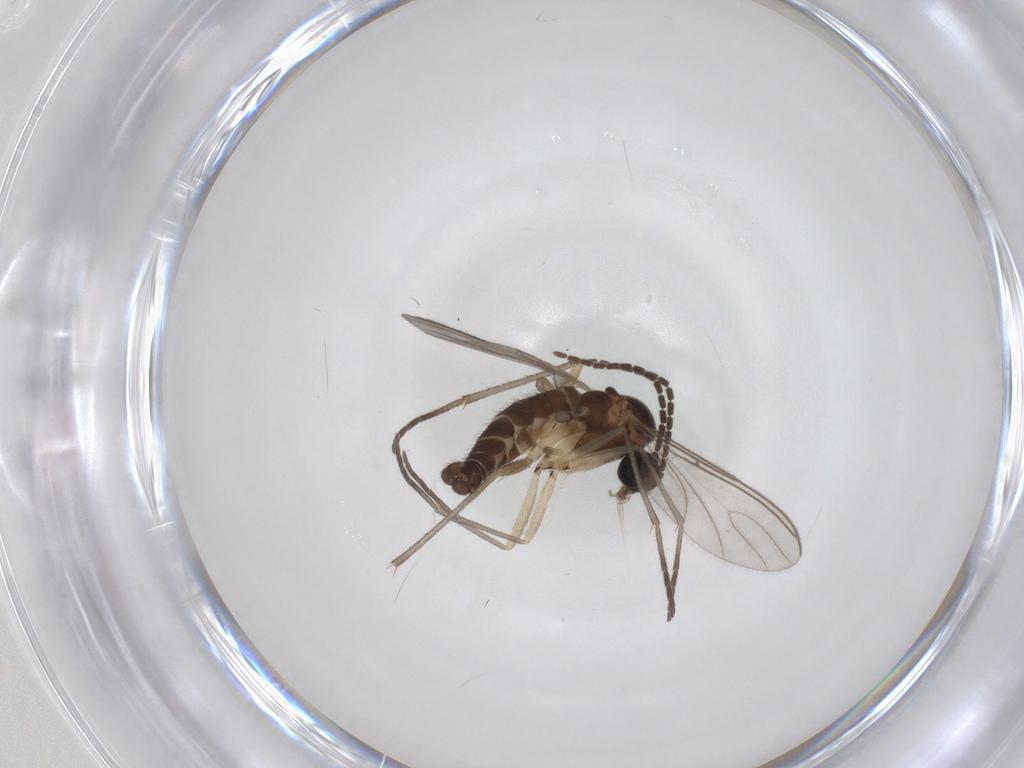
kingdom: Animalia
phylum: Arthropoda
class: Insecta
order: Diptera
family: Sciaridae
